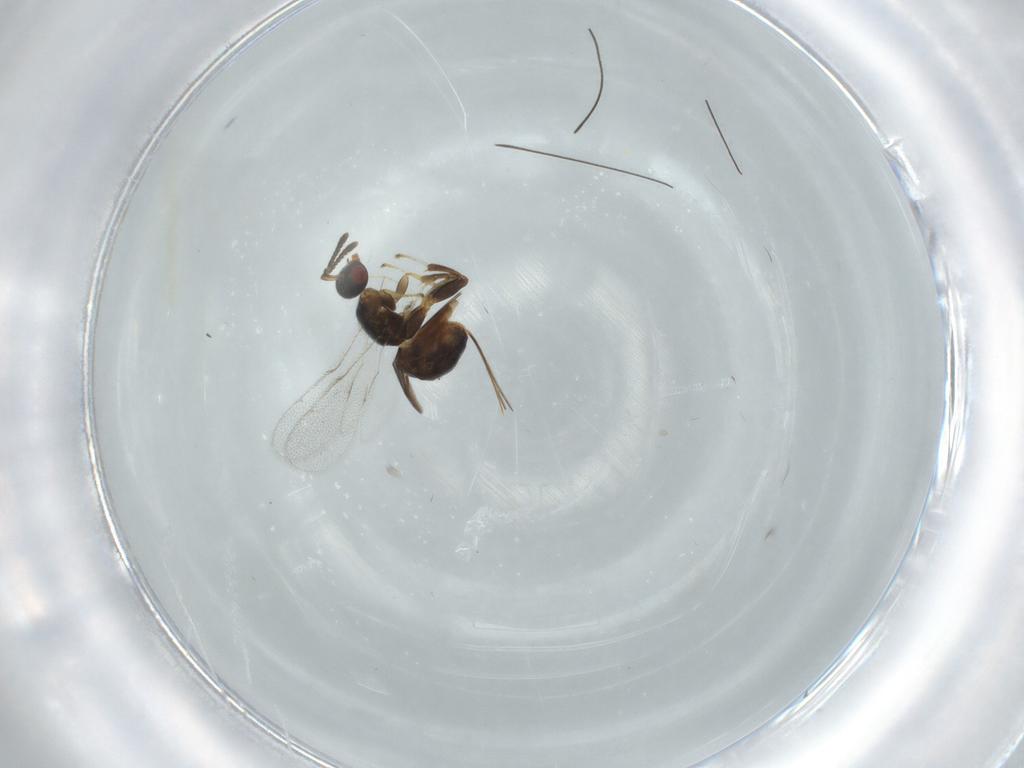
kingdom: Animalia
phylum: Arthropoda
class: Insecta
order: Hymenoptera
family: Torymidae
